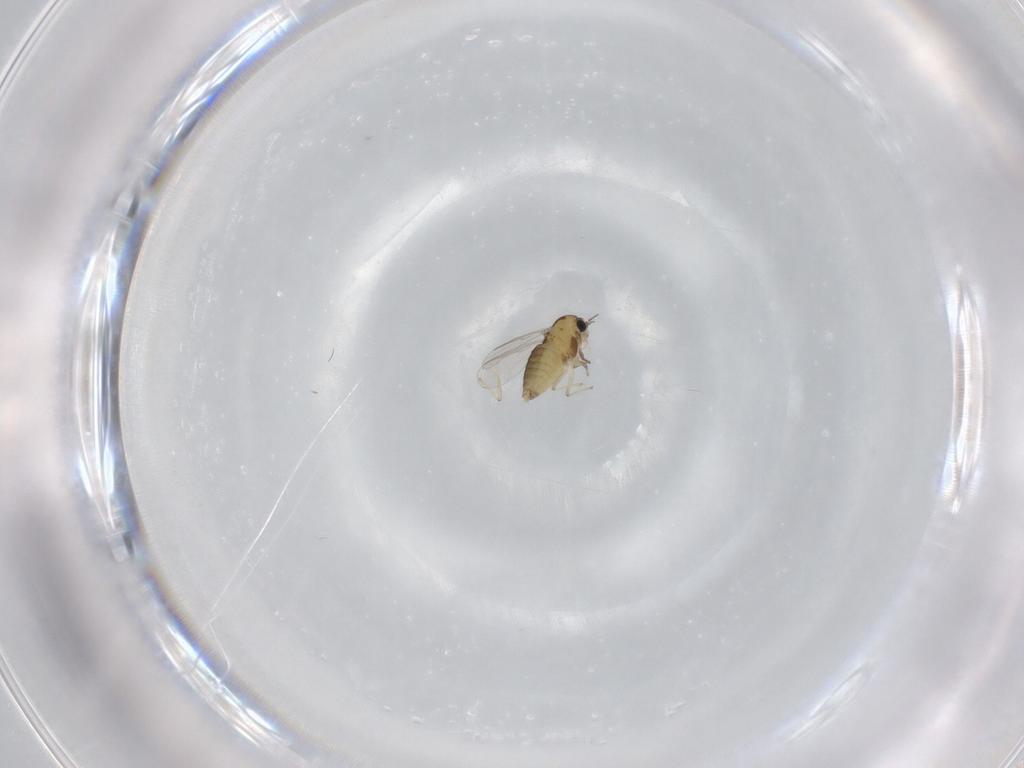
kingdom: Animalia
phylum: Arthropoda
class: Insecta
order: Diptera
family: Chironomidae
